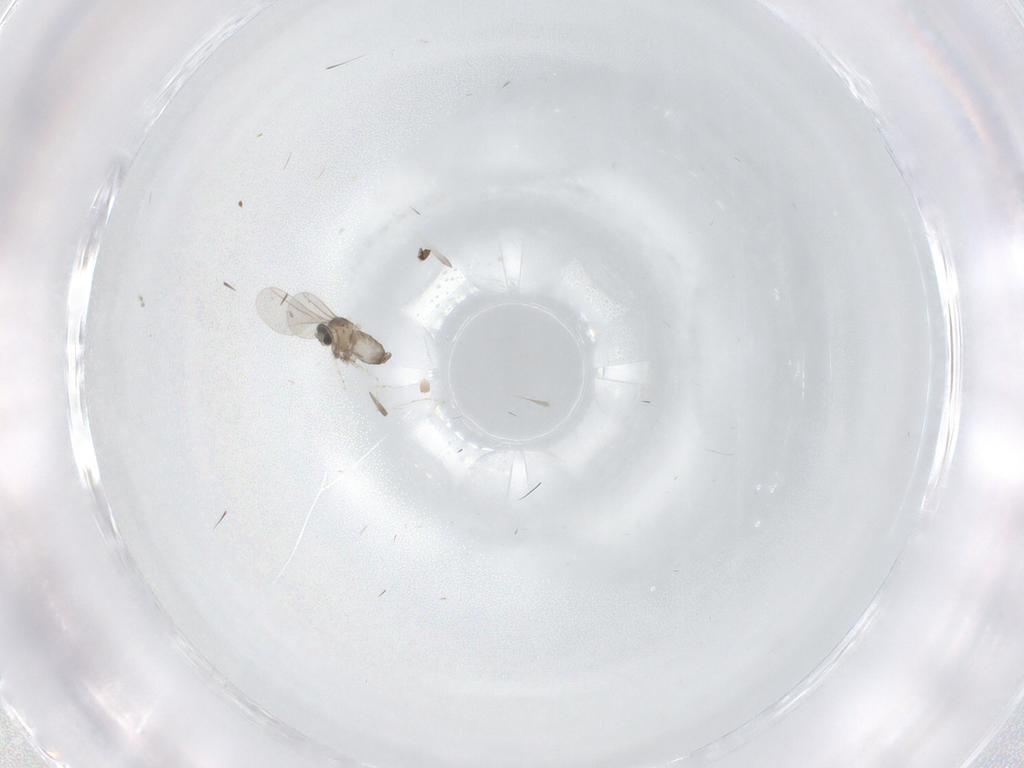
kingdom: Animalia
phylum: Arthropoda
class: Insecta
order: Diptera
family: Cecidomyiidae
